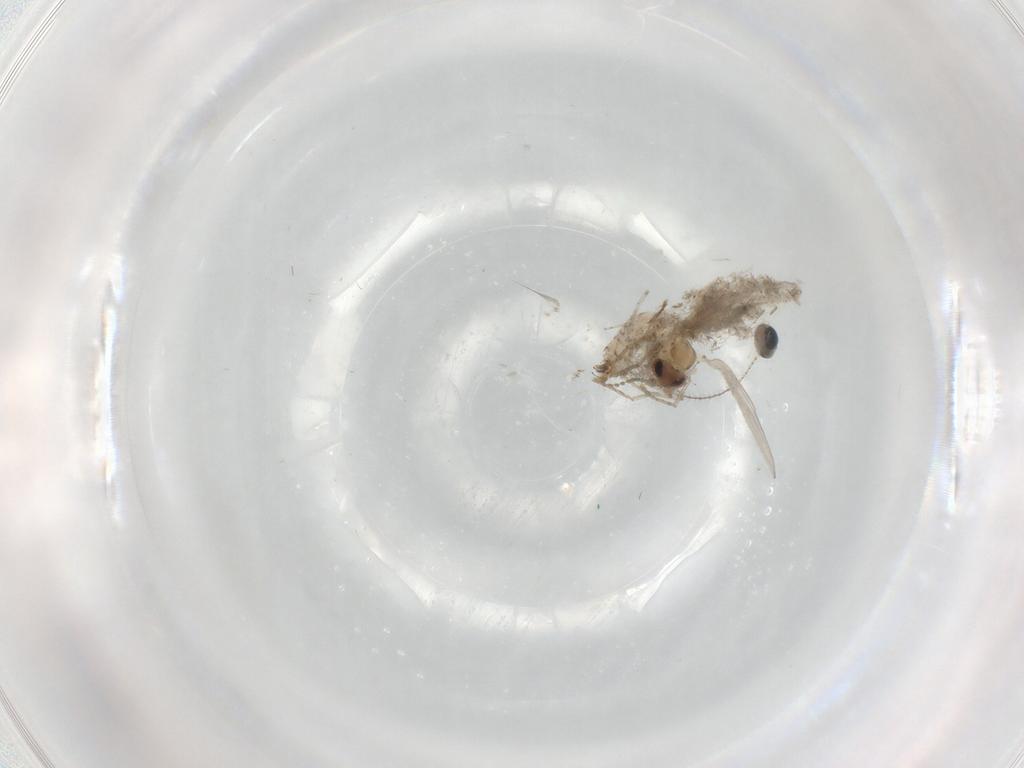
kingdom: Animalia
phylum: Arthropoda
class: Insecta
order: Diptera
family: Psychodidae
